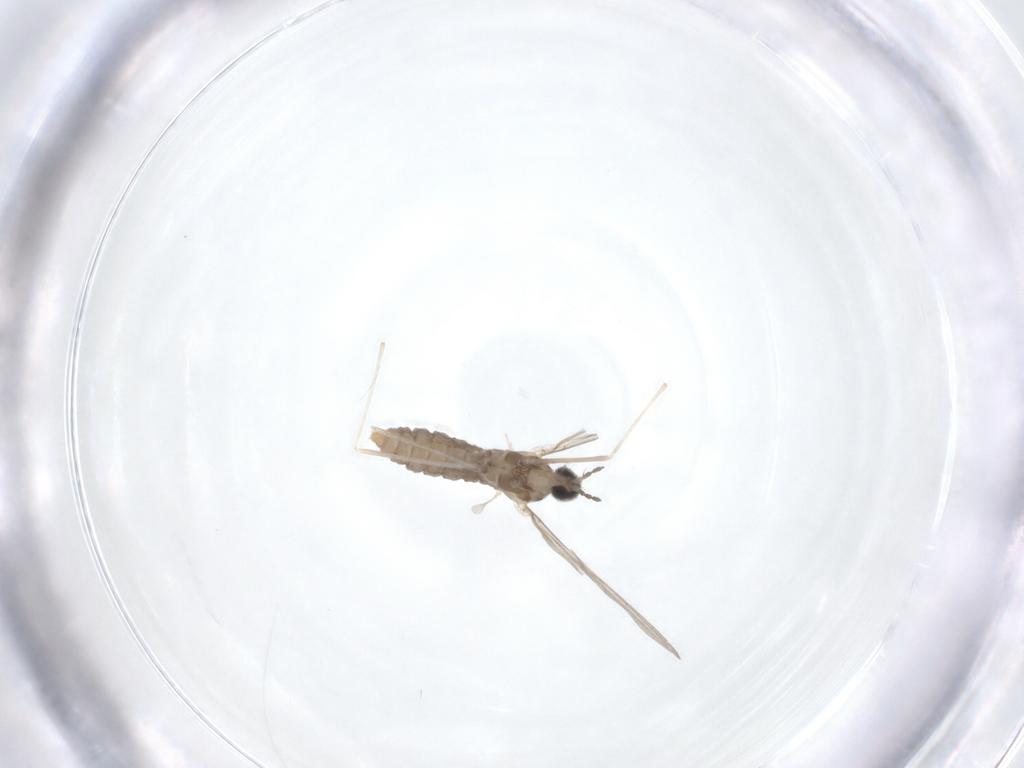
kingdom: Animalia
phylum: Arthropoda
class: Insecta
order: Diptera
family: Cecidomyiidae
